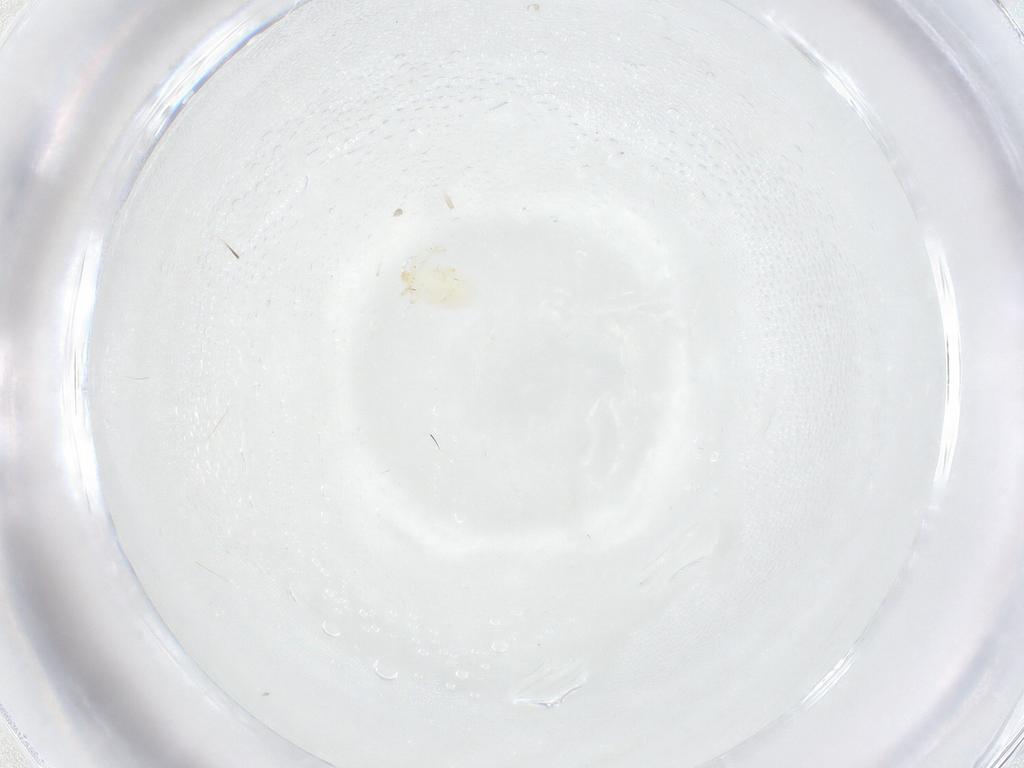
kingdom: Animalia
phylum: Arthropoda
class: Arachnida
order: Trombidiformes
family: Erythraeidae
